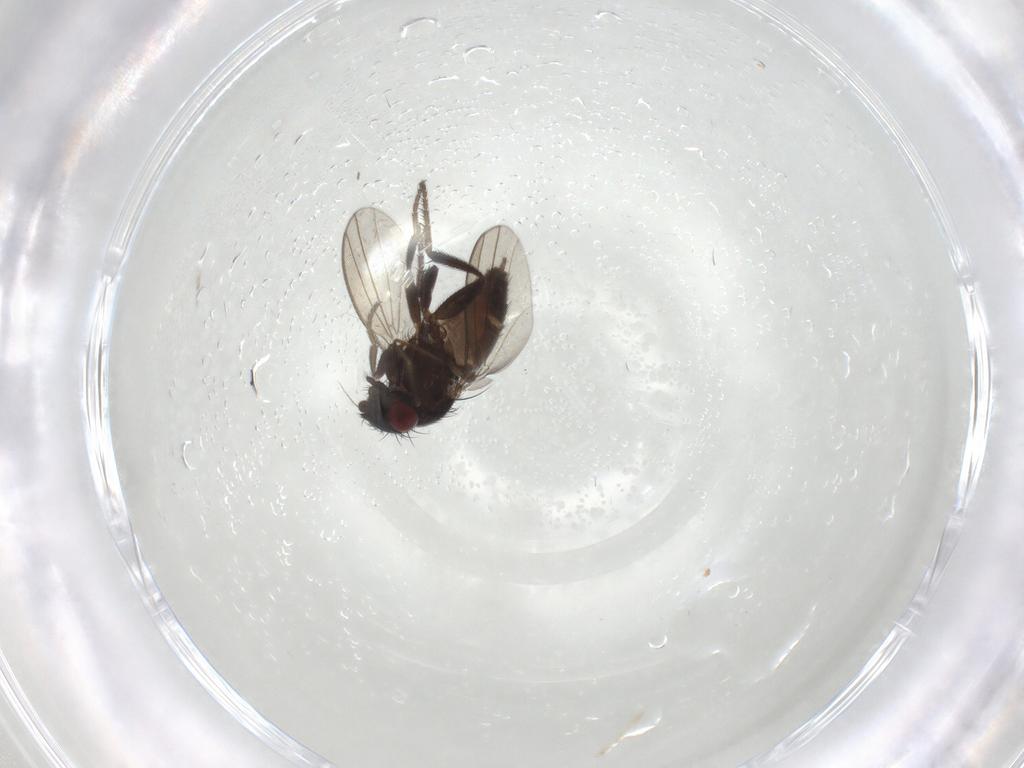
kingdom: Animalia
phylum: Arthropoda
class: Insecta
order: Diptera
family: Milichiidae
